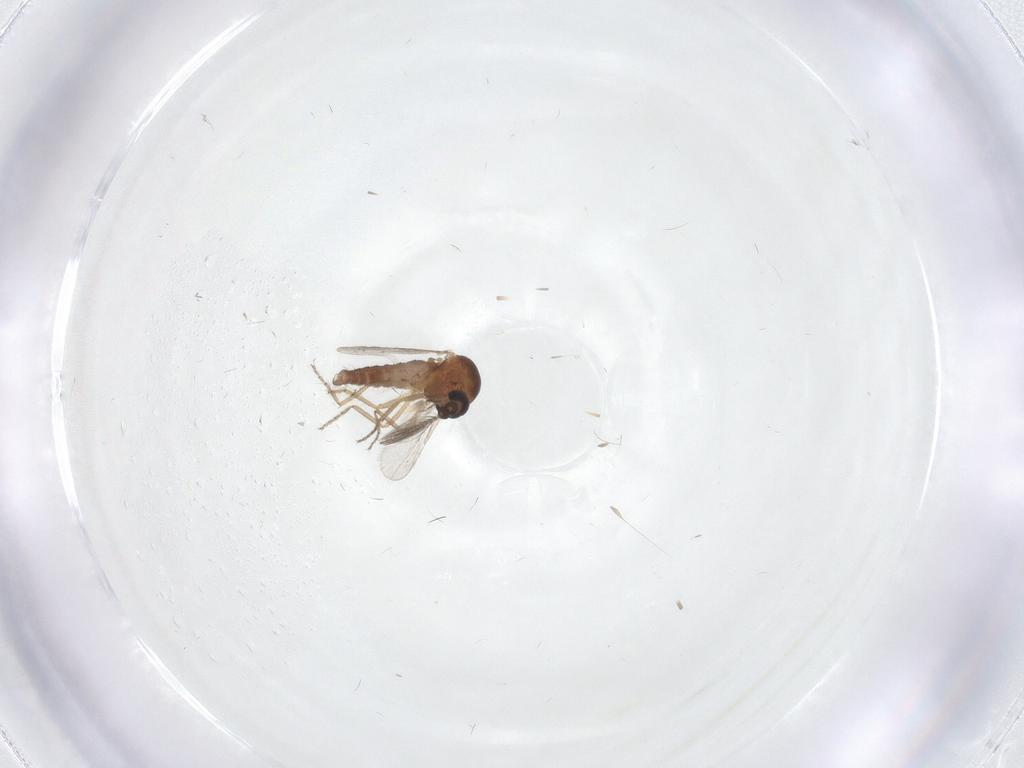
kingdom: Animalia
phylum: Arthropoda
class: Insecta
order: Diptera
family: Ceratopogonidae
